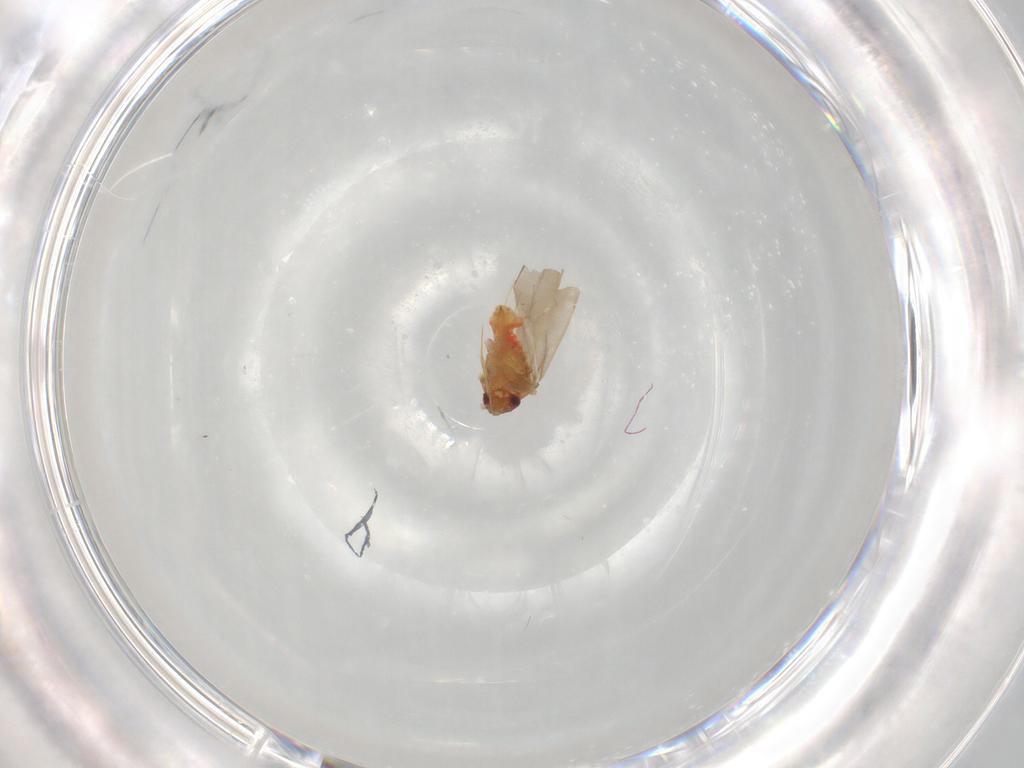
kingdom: Animalia
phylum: Arthropoda
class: Insecta
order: Hemiptera
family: Ceratocombidae
